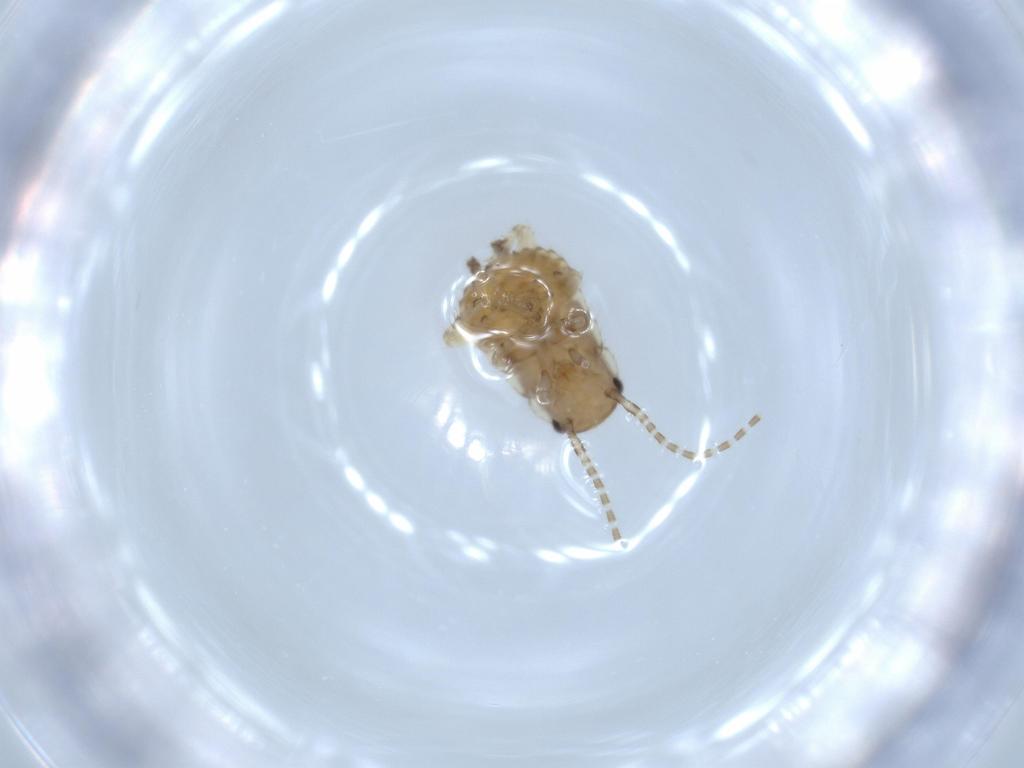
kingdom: Animalia
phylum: Arthropoda
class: Insecta
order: Blattodea
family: Ectobiidae
